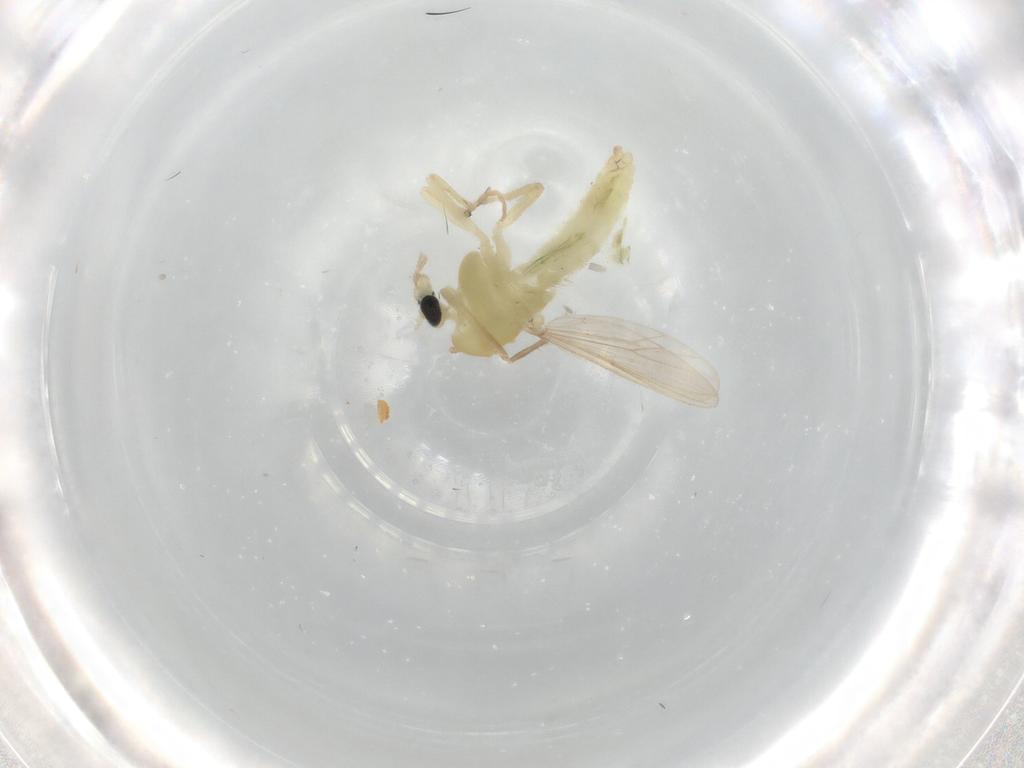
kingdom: Animalia
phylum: Arthropoda
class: Insecta
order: Diptera
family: Chironomidae
